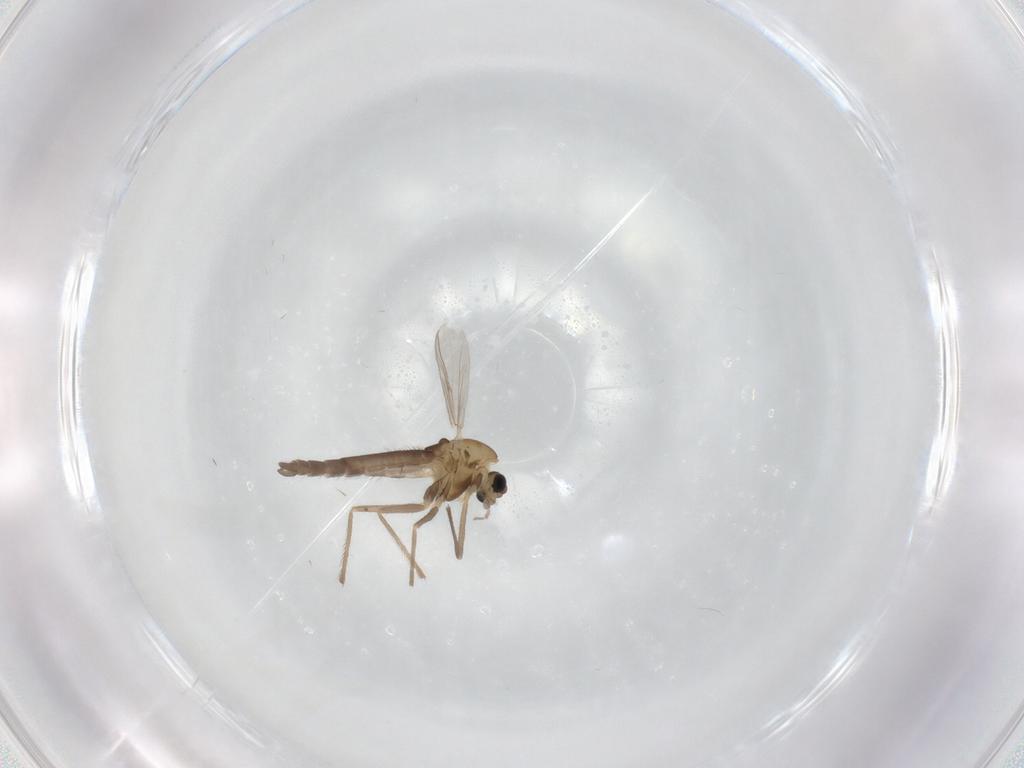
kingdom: Animalia
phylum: Arthropoda
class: Insecta
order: Diptera
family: Chironomidae
